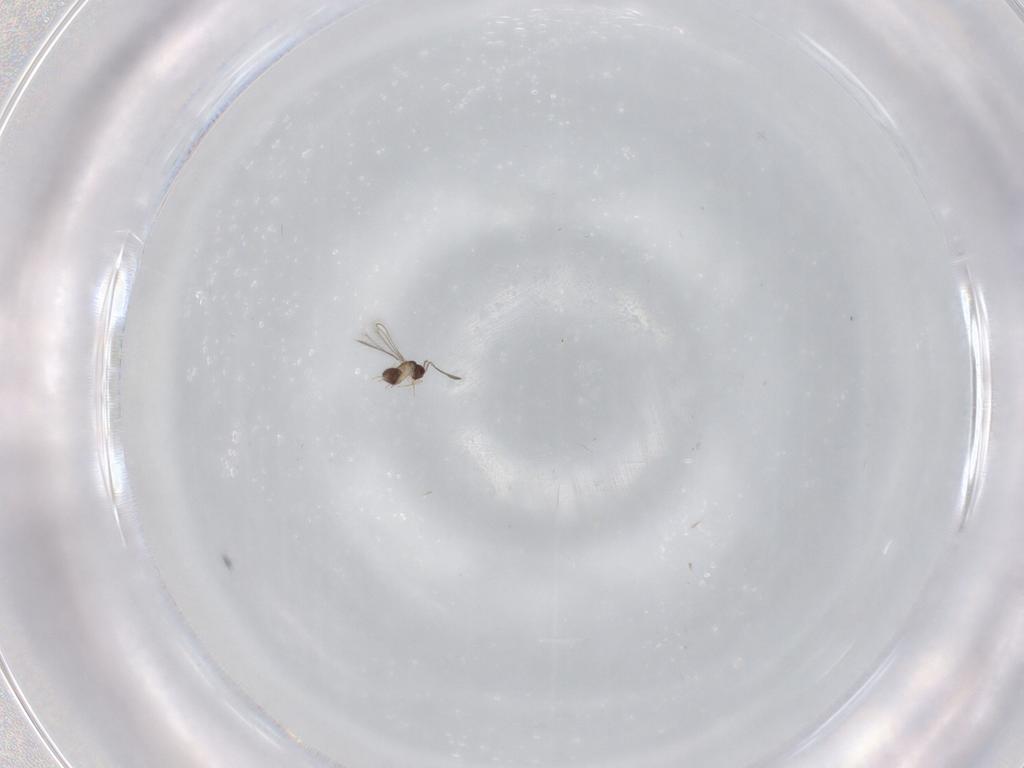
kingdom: Animalia
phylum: Arthropoda
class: Insecta
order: Hymenoptera
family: Mymaridae
